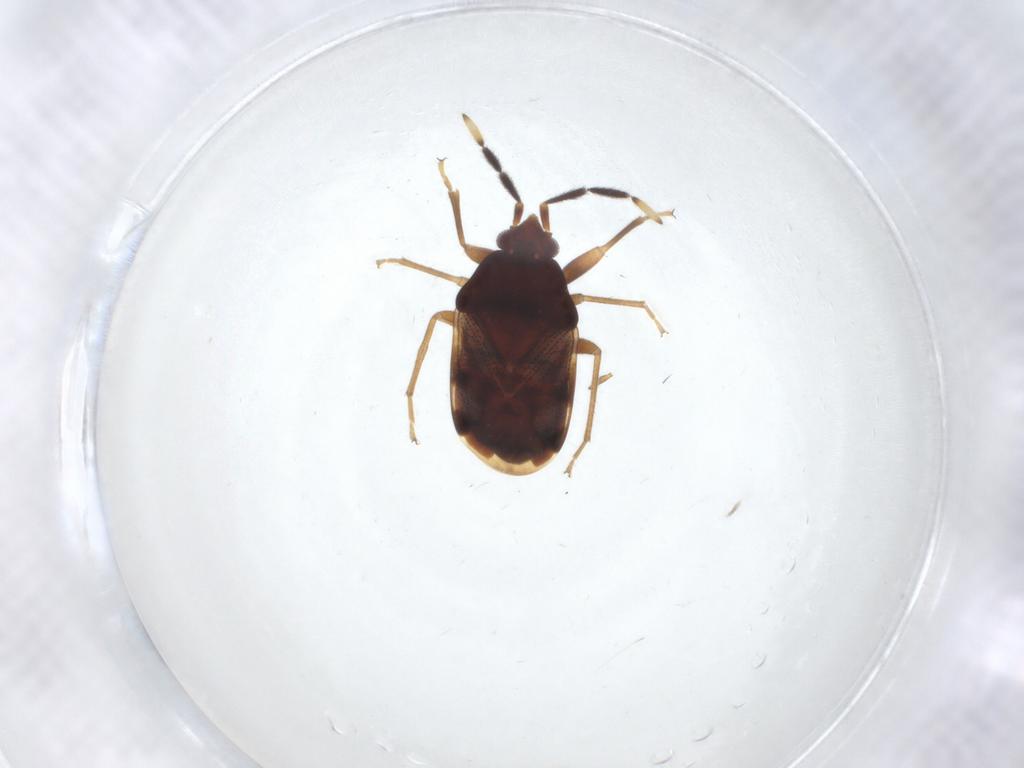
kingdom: Animalia
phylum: Arthropoda
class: Insecta
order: Hemiptera
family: Rhyparochromidae
